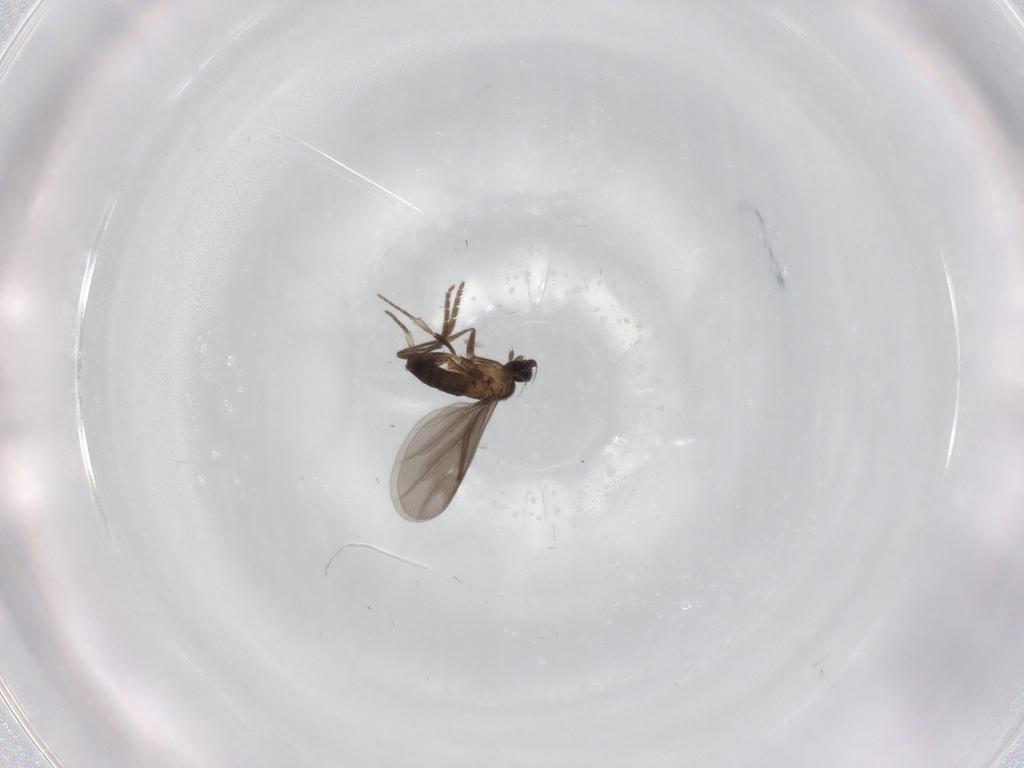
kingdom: Animalia
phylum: Arthropoda
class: Insecta
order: Diptera
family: Phoridae
